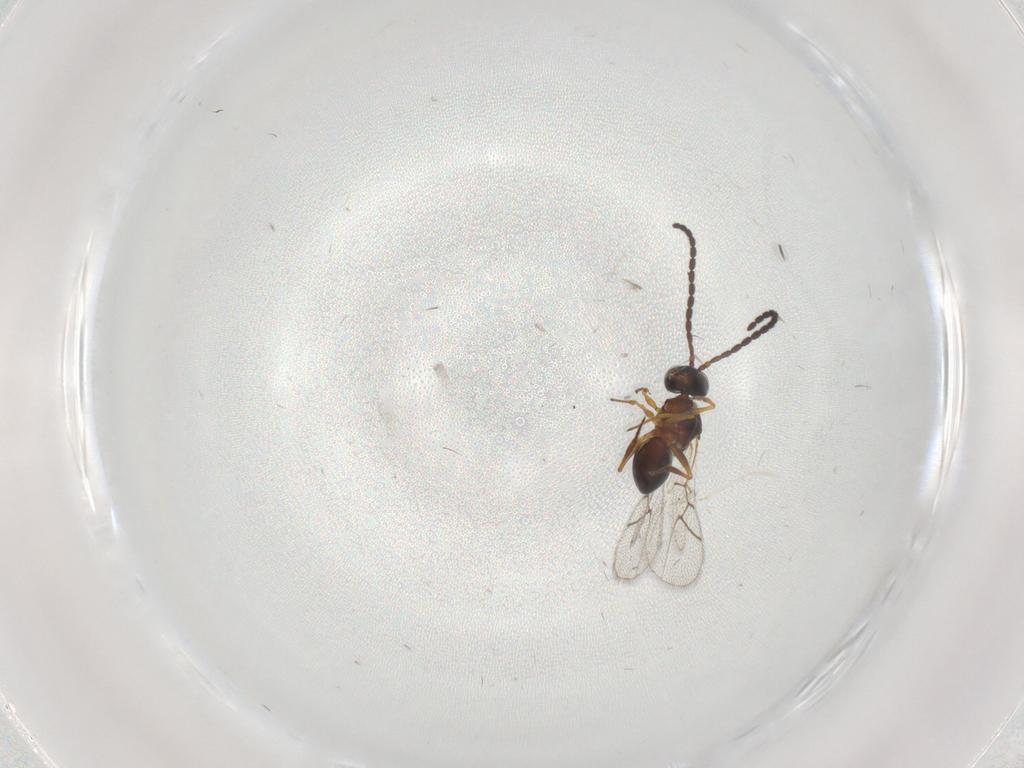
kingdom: Animalia
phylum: Arthropoda
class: Insecta
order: Hymenoptera
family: Figitidae
